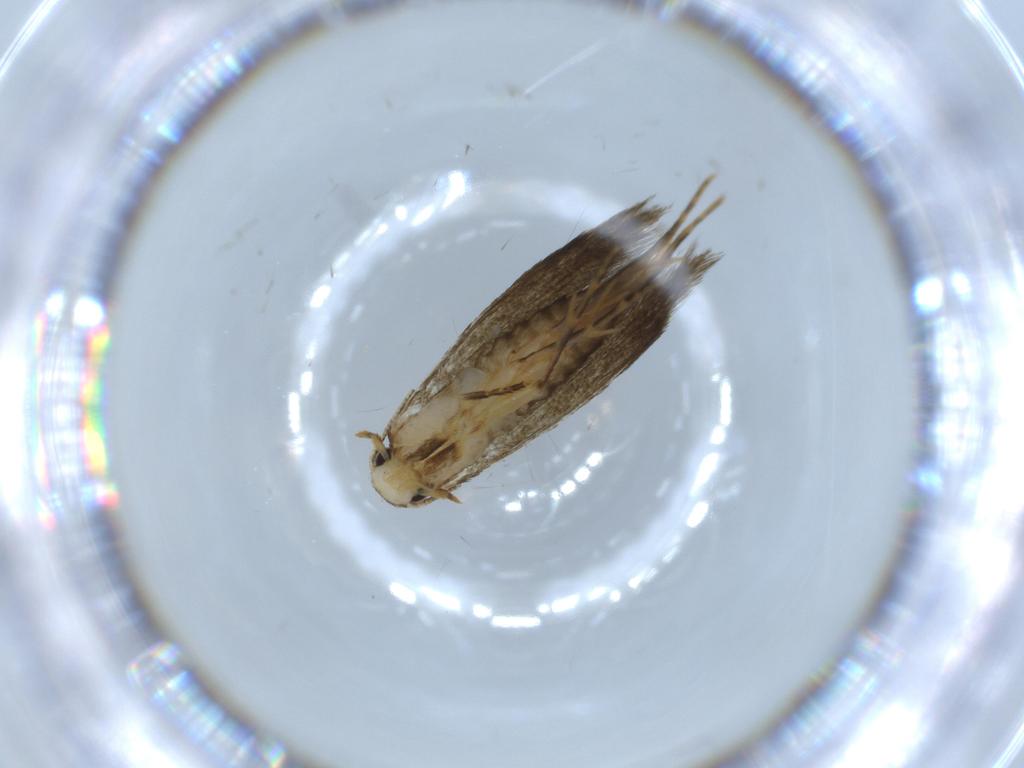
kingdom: Animalia
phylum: Arthropoda
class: Insecta
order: Lepidoptera
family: Tineidae
